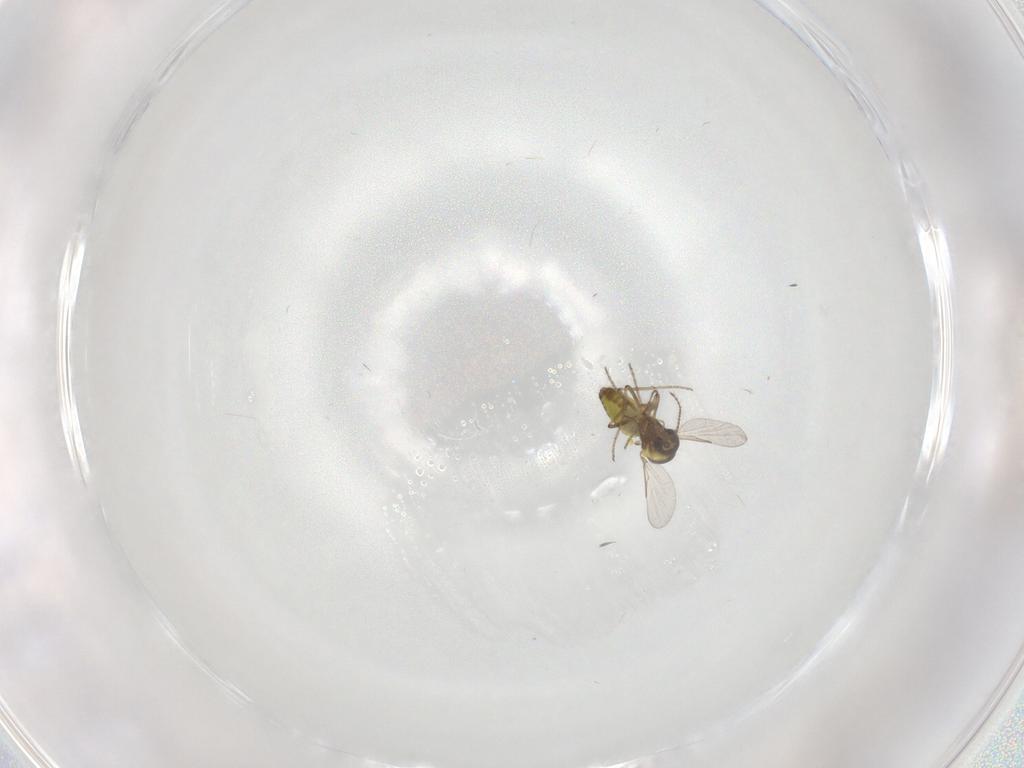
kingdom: Animalia
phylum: Arthropoda
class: Insecta
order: Diptera
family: Ceratopogonidae
